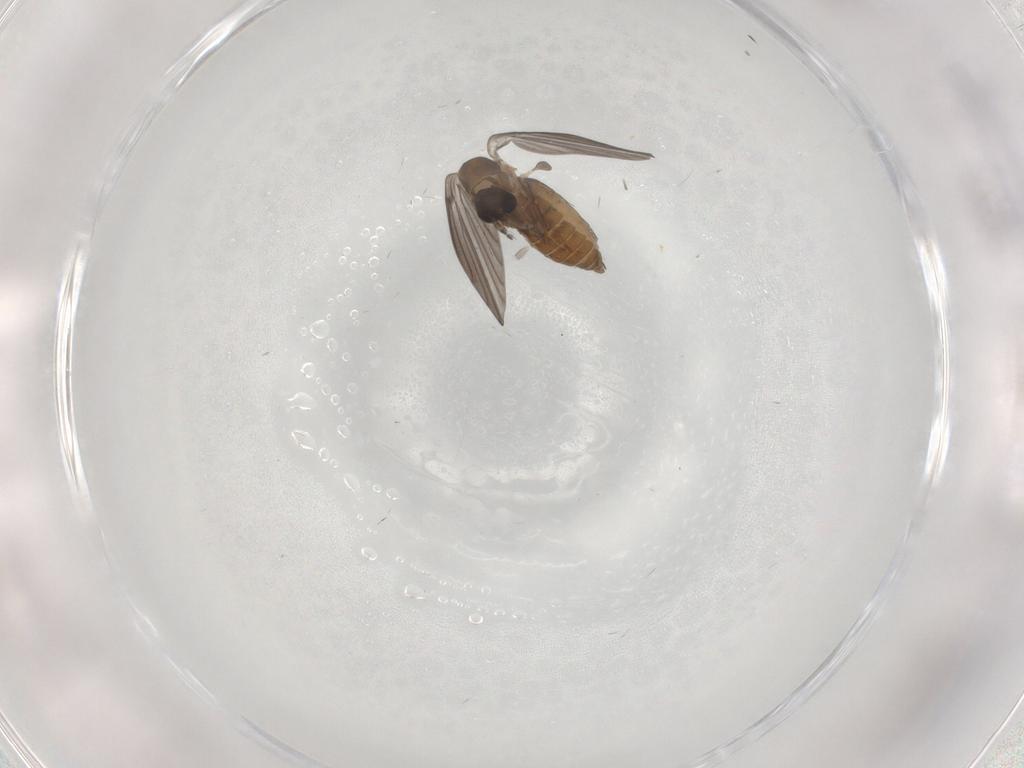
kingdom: Animalia
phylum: Arthropoda
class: Insecta
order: Diptera
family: Psychodidae
